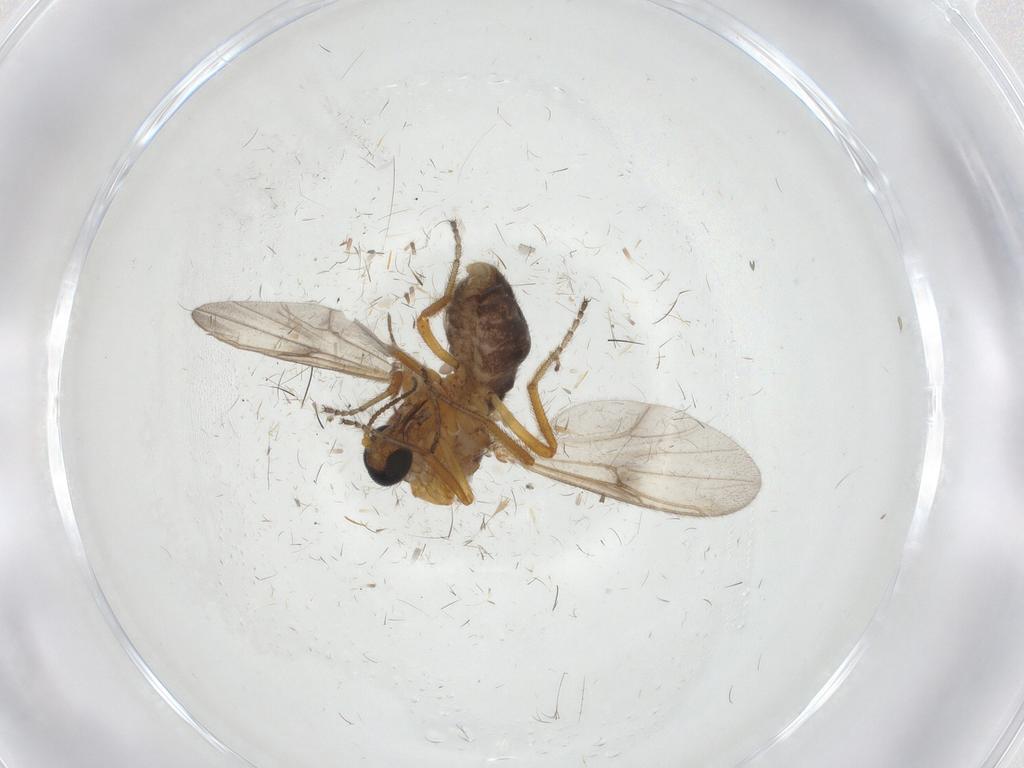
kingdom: Animalia
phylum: Arthropoda
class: Insecta
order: Diptera
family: Ceratopogonidae
